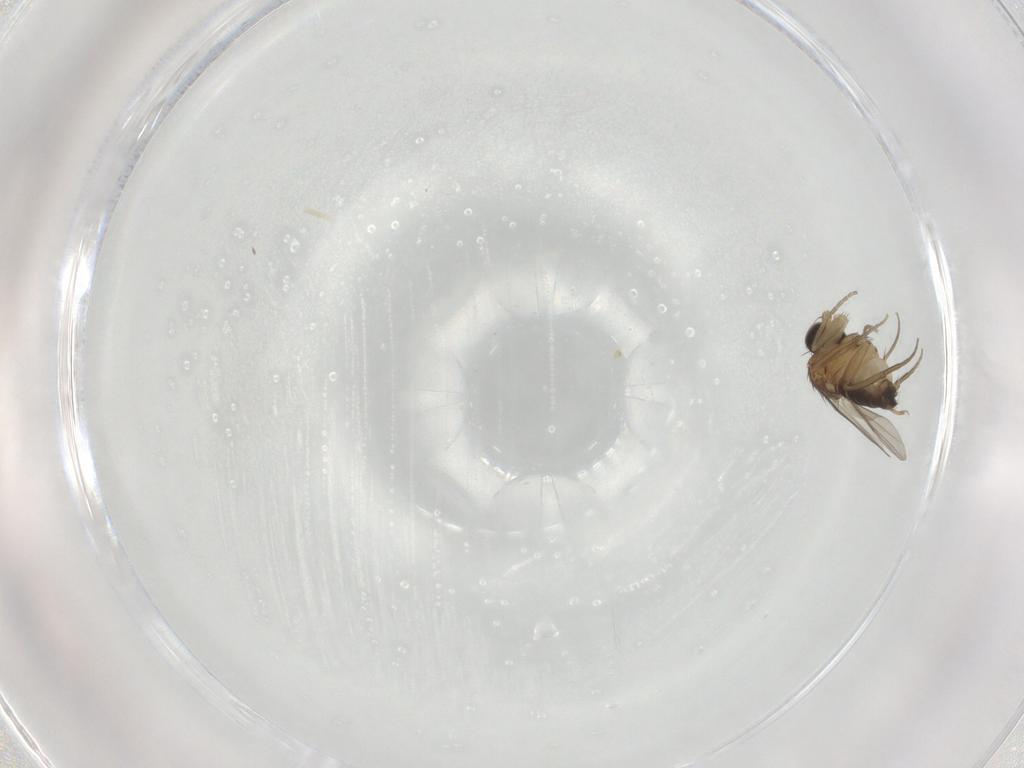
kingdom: Animalia
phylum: Arthropoda
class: Insecta
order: Diptera
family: Phoridae
